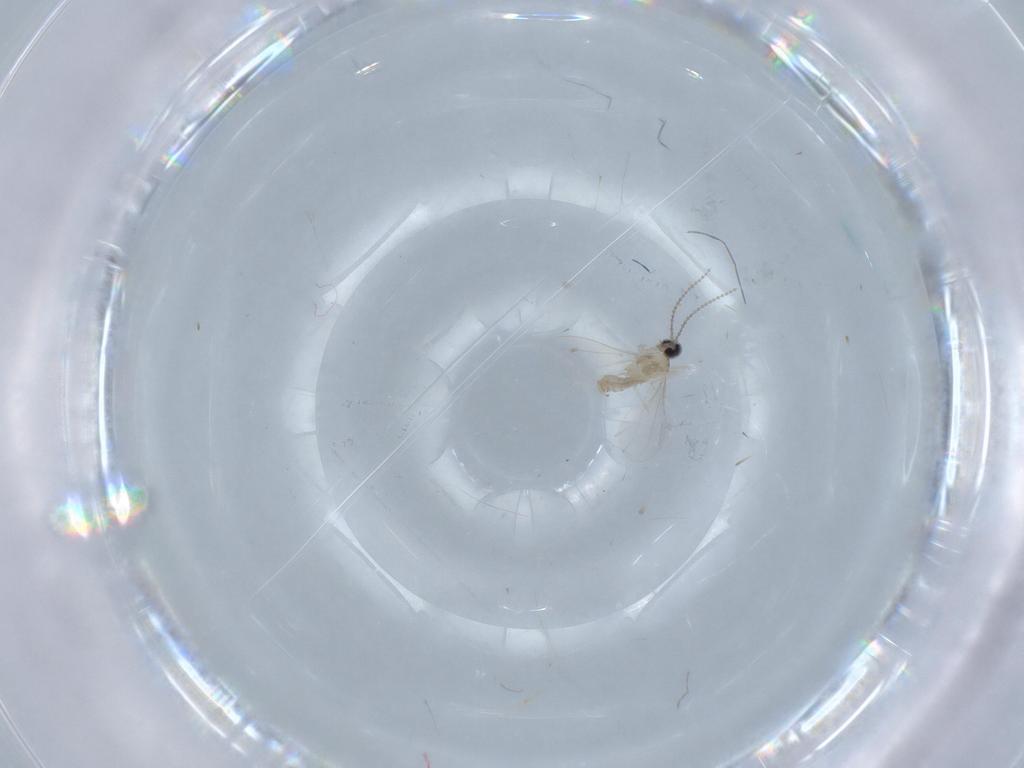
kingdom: Animalia
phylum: Arthropoda
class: Insecta
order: Diptera
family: Cecidomyiidae
